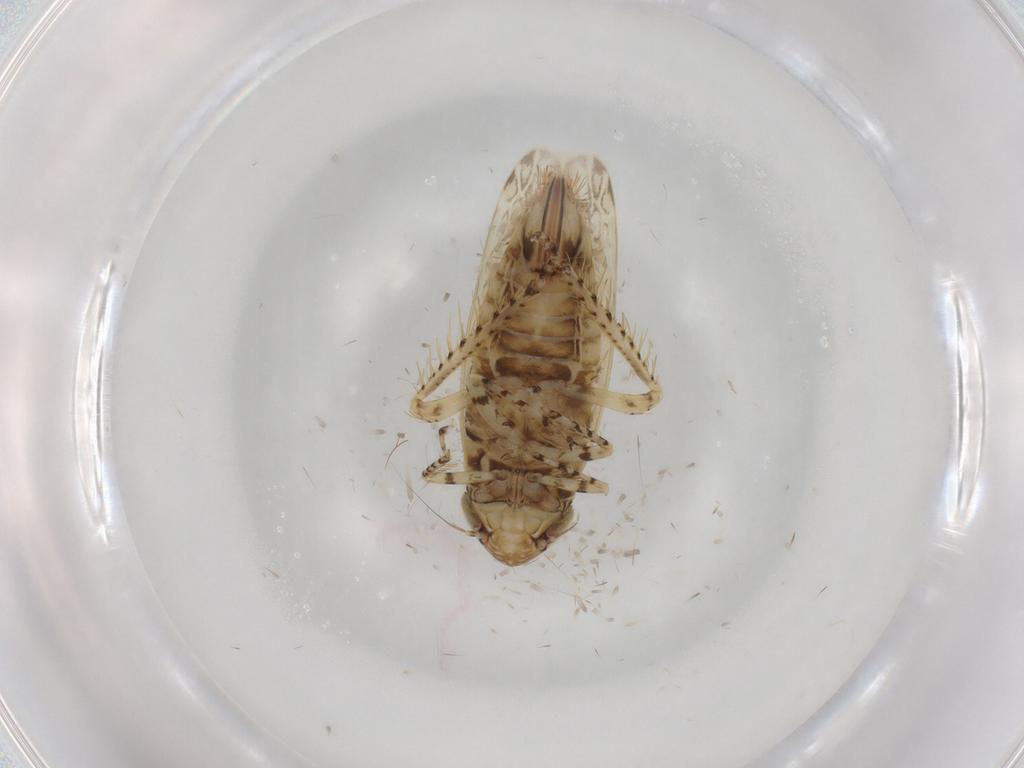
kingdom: Animalia
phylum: Arthropoda
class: Insecta
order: Hemiptera
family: Cicadellidae
